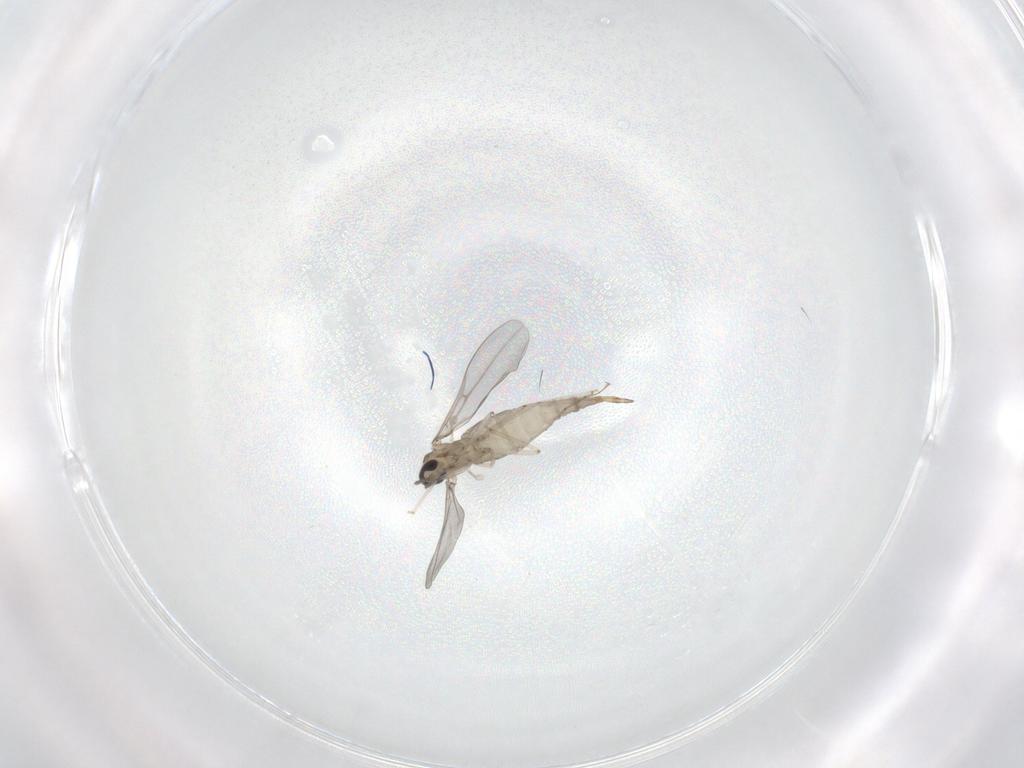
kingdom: Animalia
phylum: Arthropoda
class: Insecta
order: Diptera
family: Cecidomyiidae
